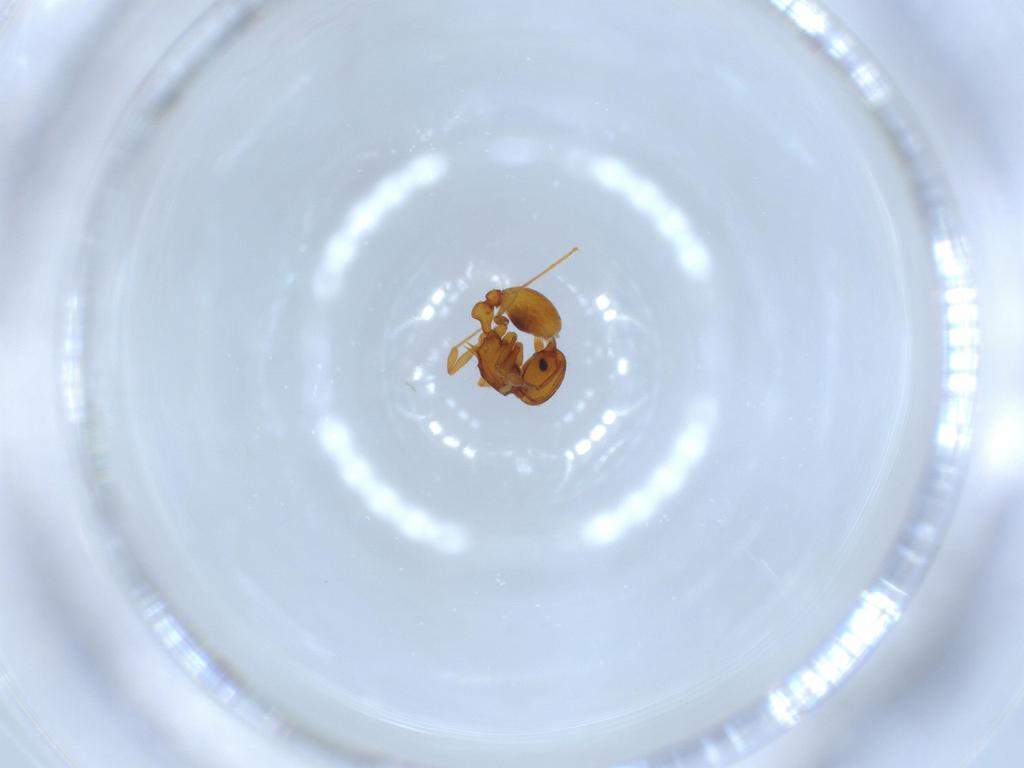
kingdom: Animalia
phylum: Arthropoda
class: Insecta
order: Hymenoptera
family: Formicidae
